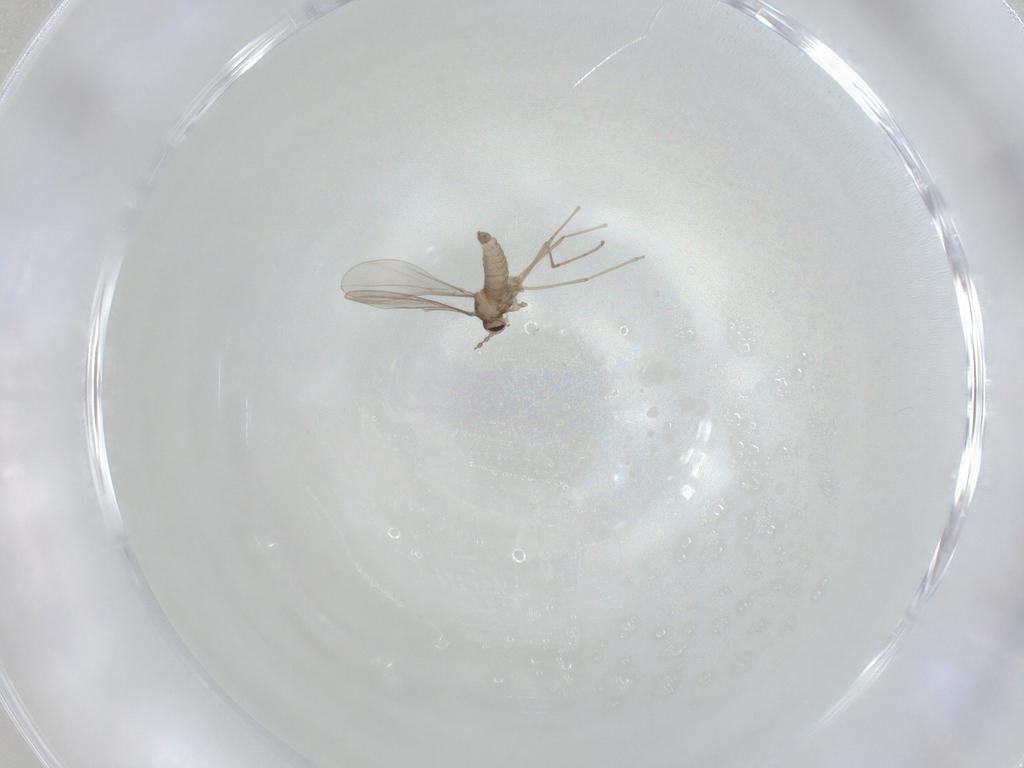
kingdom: Animalia
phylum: Arthropoda
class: Insecta
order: Diptera
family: Cecidomyiidae
